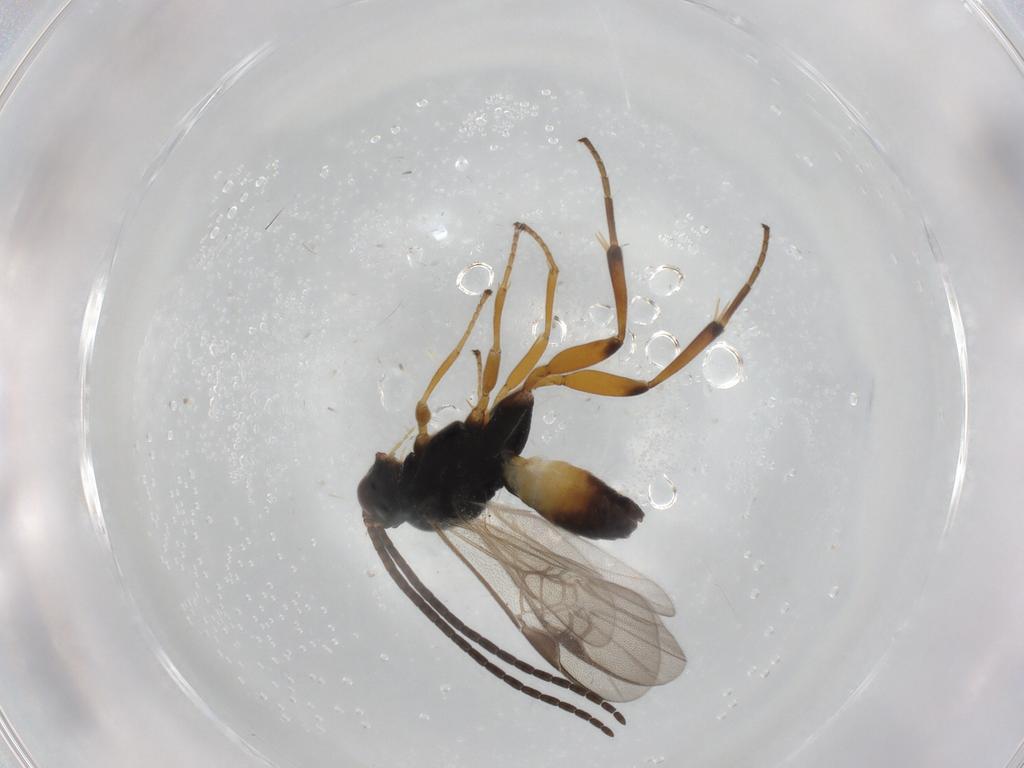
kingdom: Animalia
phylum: Arthropoda
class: Insecta
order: Hymenoptera
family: Braconidae
